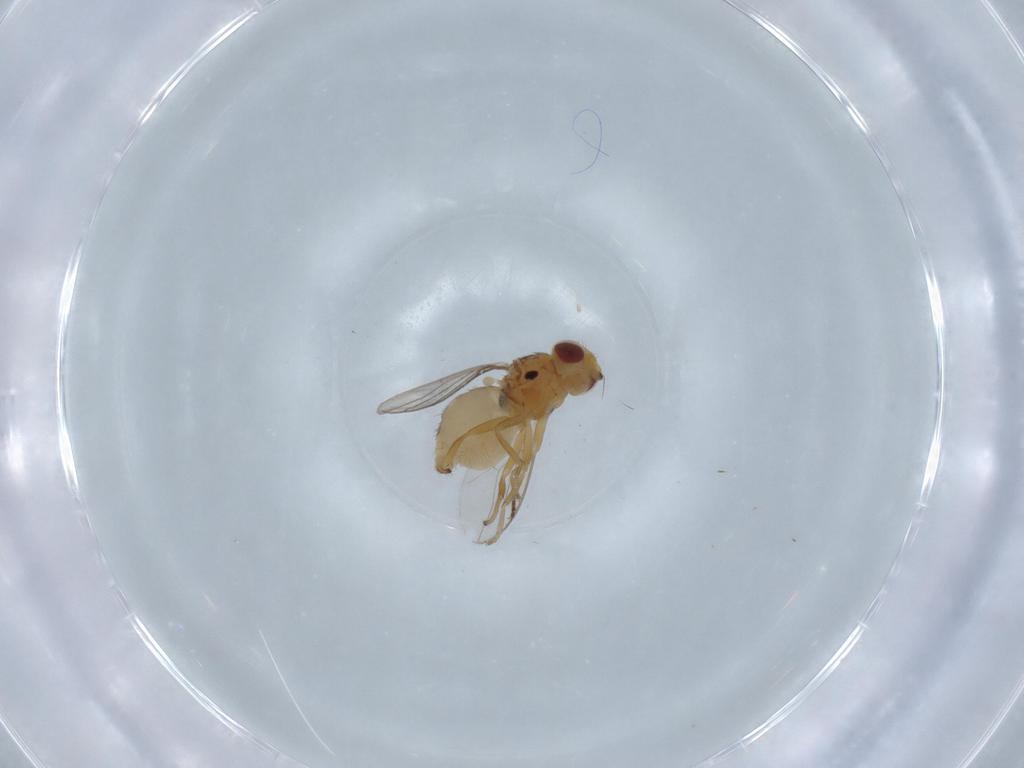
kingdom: Animalia
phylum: Arthropoda
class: Insecta
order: Diptera
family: Chloropidae
